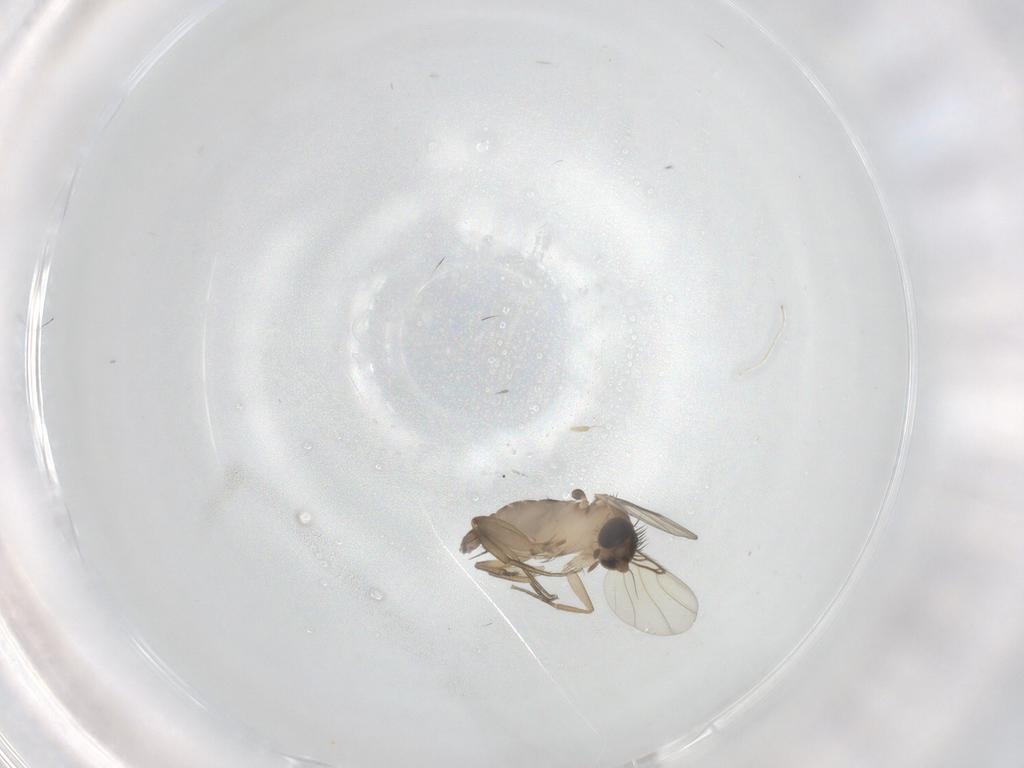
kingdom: Animalia
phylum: Arthropoda
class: Insecta
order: Diptera
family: Phoridae
